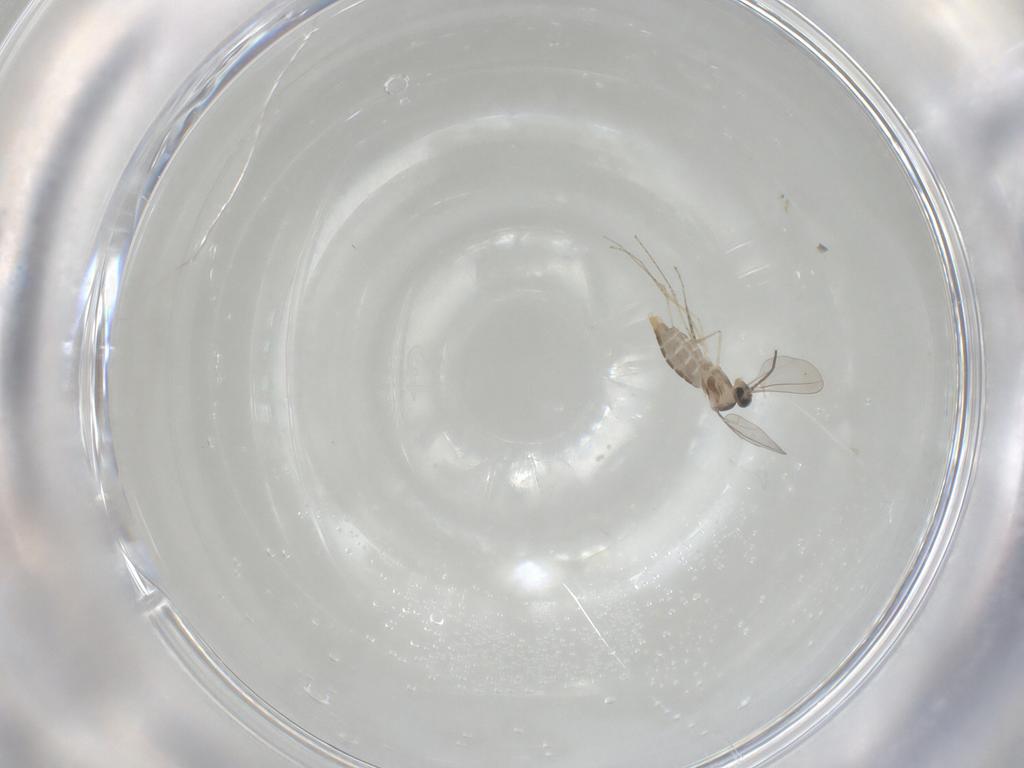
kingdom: Animalia
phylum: Arthropoda
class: Insecta
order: Diptera
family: Cecidomyiidae
